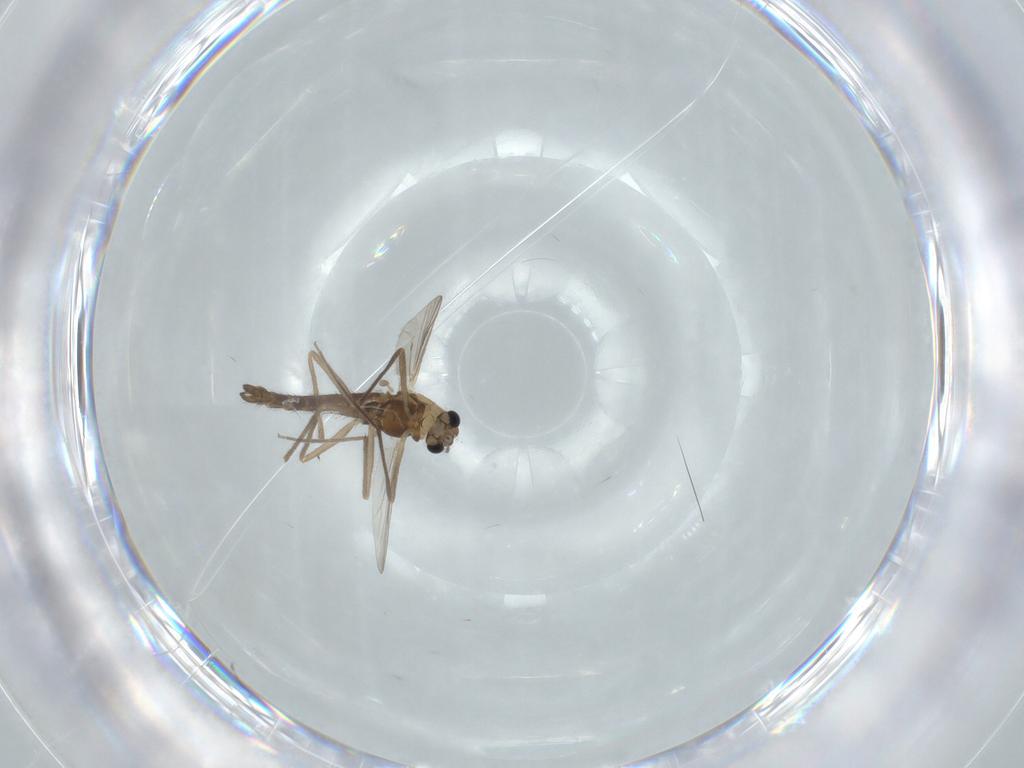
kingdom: Animalia
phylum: Arthropoda
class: Insecta
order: Diptera
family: Chironomidae
